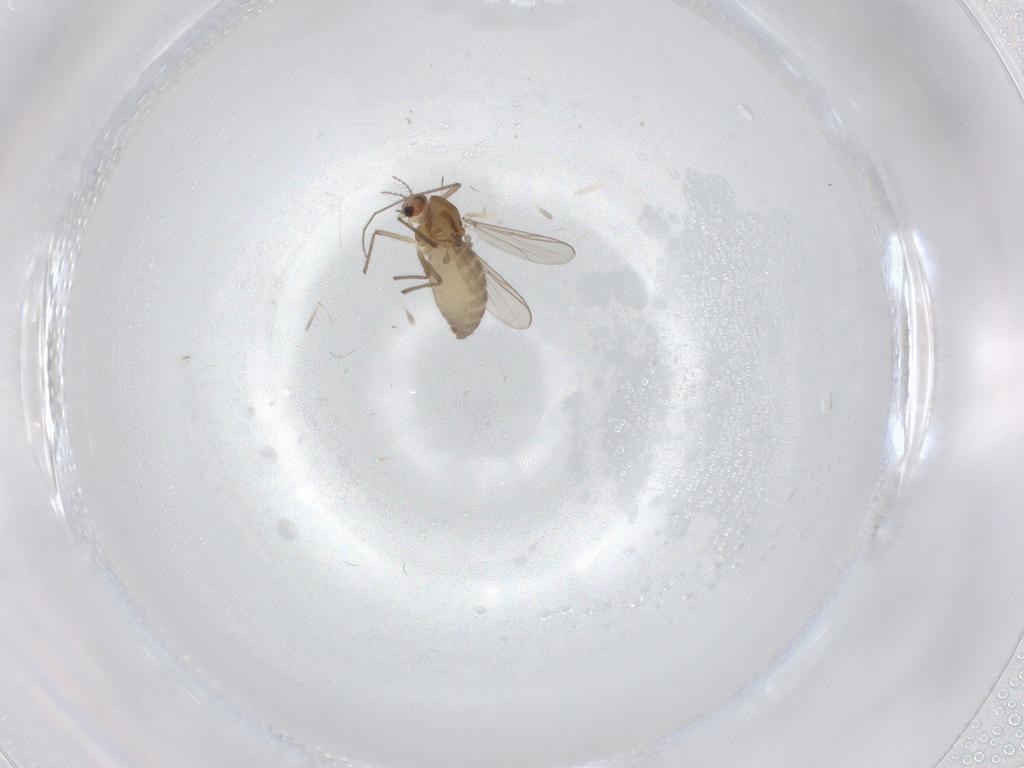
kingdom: Animalia
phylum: Arthropoda
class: Insecta
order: Diptera
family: Chironomidae
